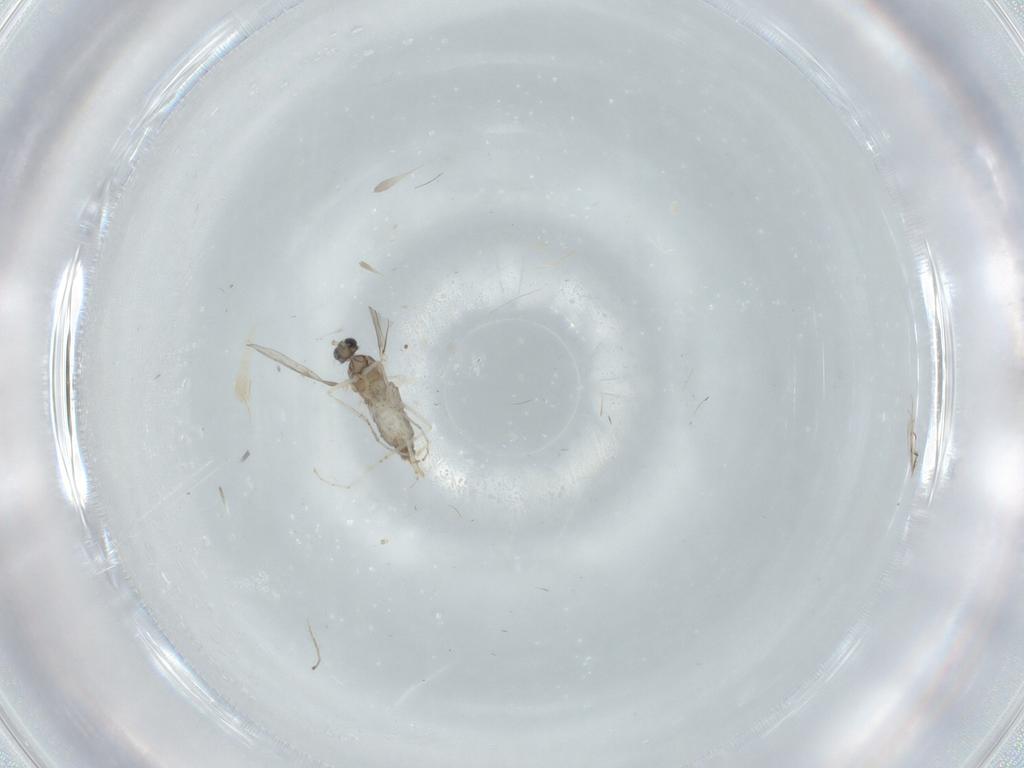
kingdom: Animalia
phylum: Arthropoda
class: Insecta
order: Diptera
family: Cecidomyiidae
